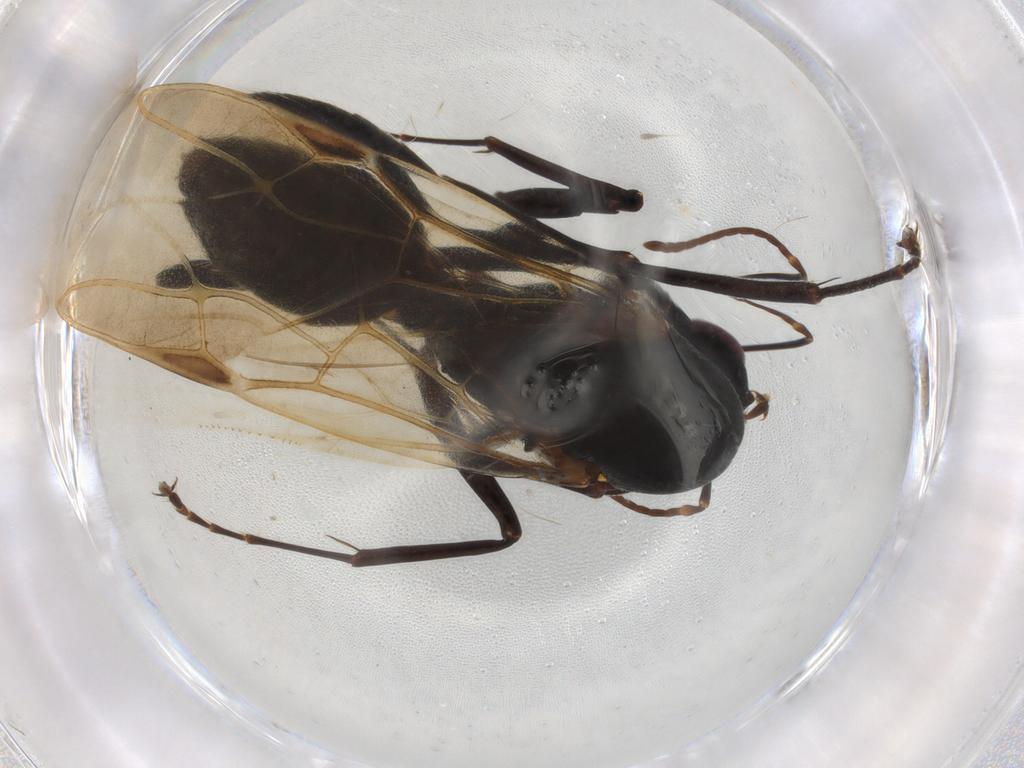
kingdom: Animalia
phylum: Arthropoda
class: Insecta
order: Hymenoptera
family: Formicidae
